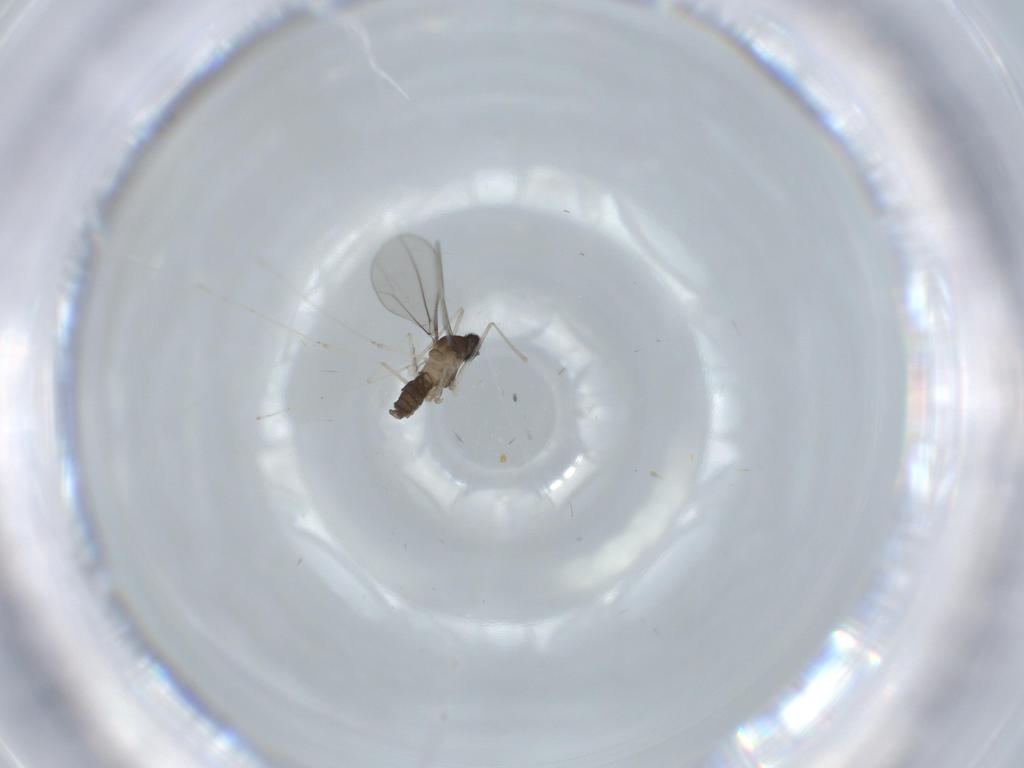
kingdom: Animalia
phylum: Arthropoda
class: Insecta
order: Diptera
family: Cecidomyiidae
